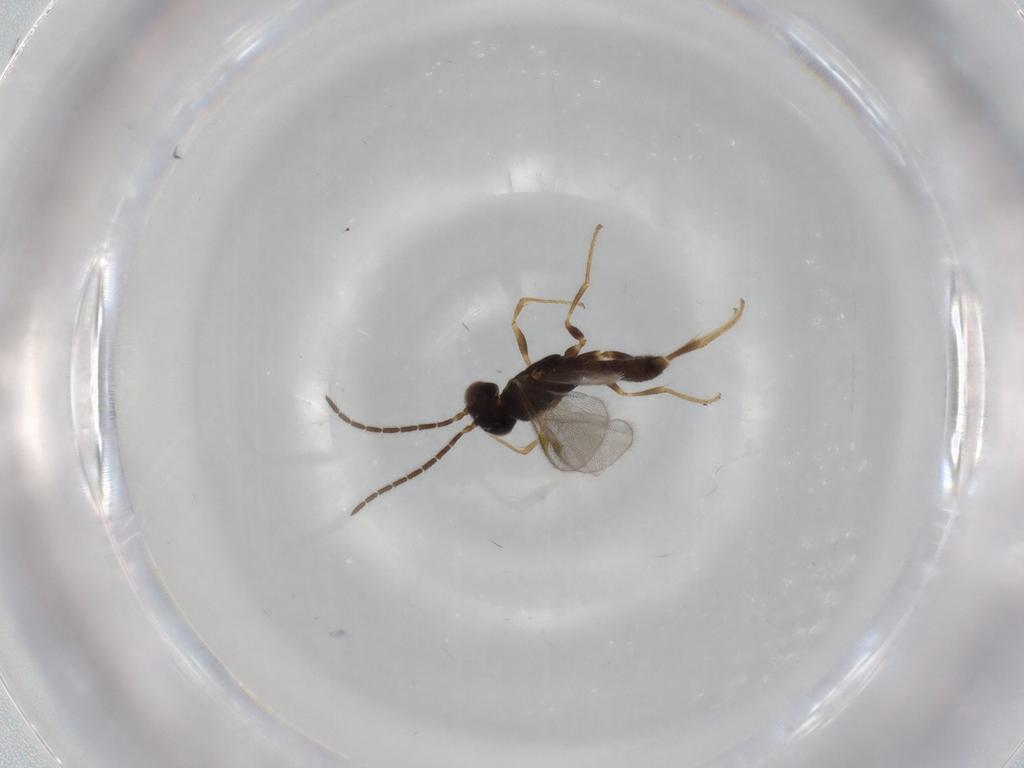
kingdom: Animalia
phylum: Arthropoda
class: Insecta
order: Hymenoptera
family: Dryinidae
